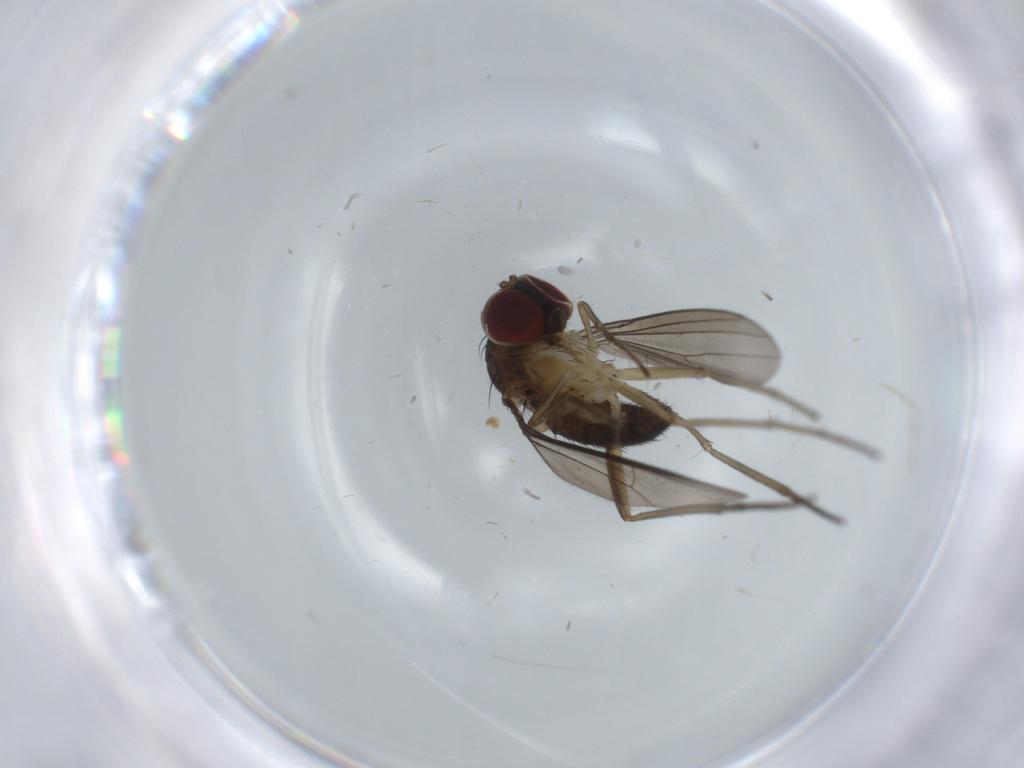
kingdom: Animalia
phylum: Arthropoda
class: Insecta
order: Diptera
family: Dolichopodidae
